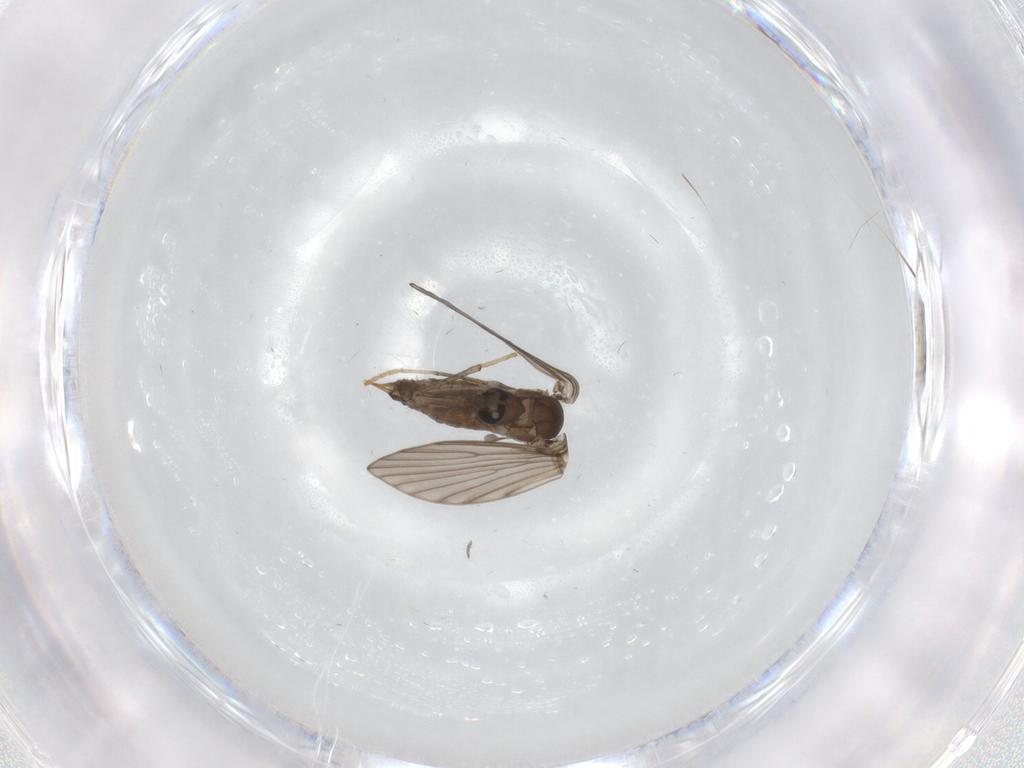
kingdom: Animalia
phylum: Arthropoda
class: Insecta
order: Diptera
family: Psychodidae
